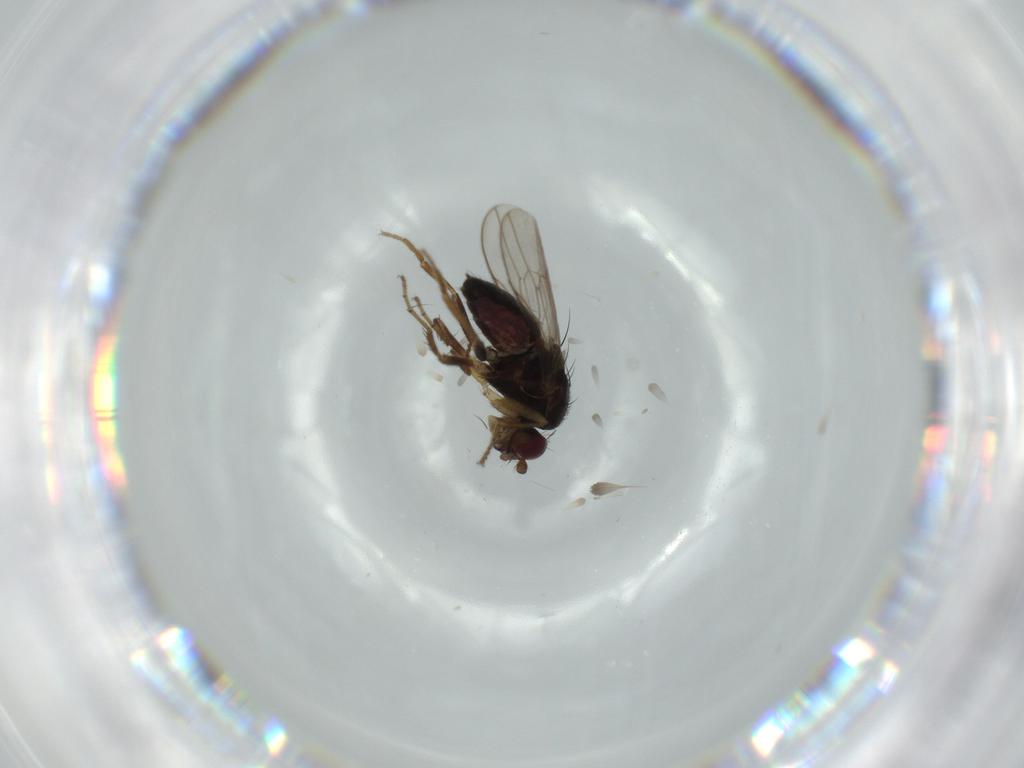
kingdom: Animalia
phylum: Arthropoda
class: Insecta
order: Diptera
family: Sphaeroceridae
